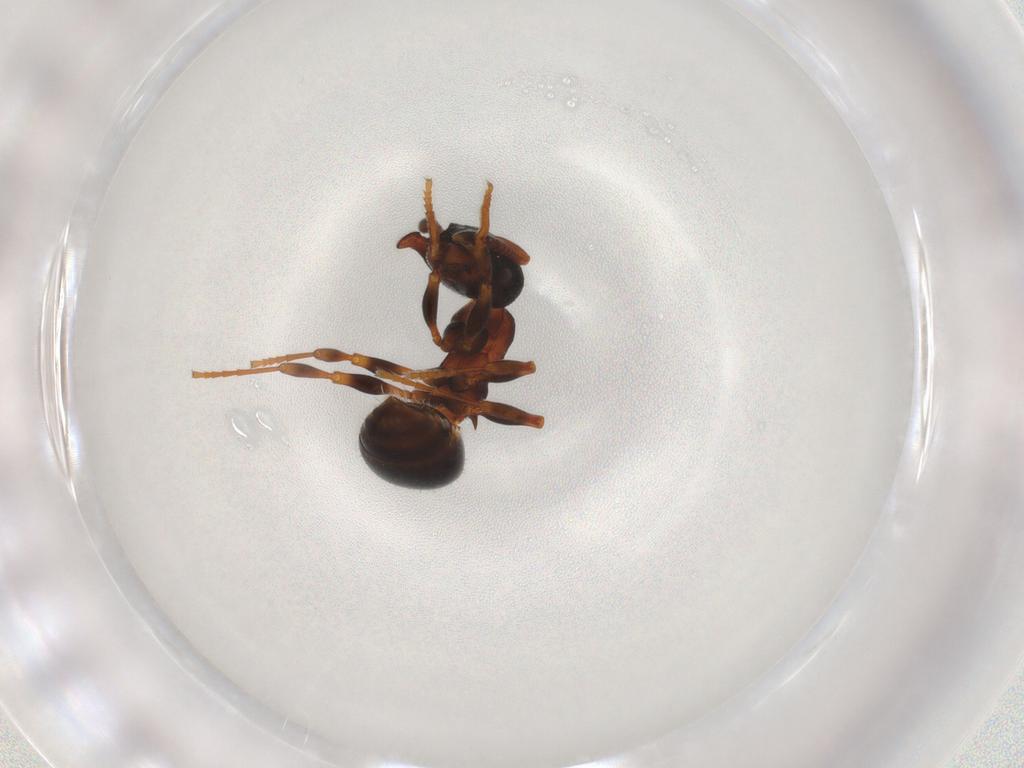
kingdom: Animalia
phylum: Arthropoda
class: Insecta
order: Hymenoptera
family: Formicidae
